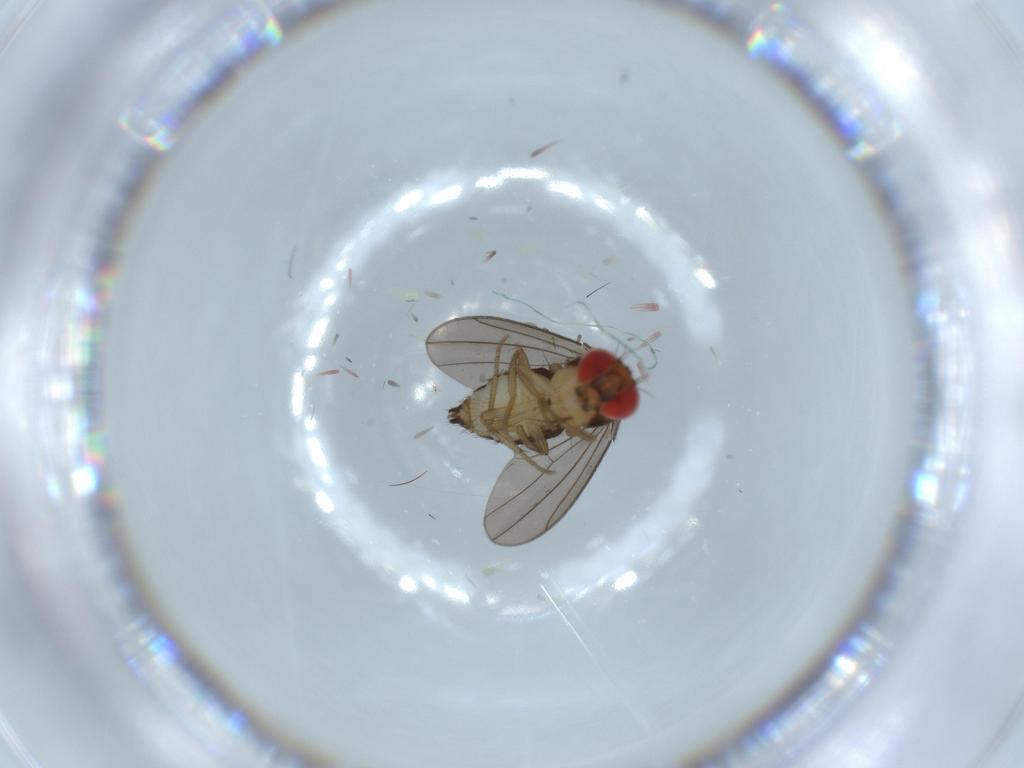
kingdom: Animalia
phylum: Arthropoda
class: Insecta
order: Diptera
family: Drosophilidae
